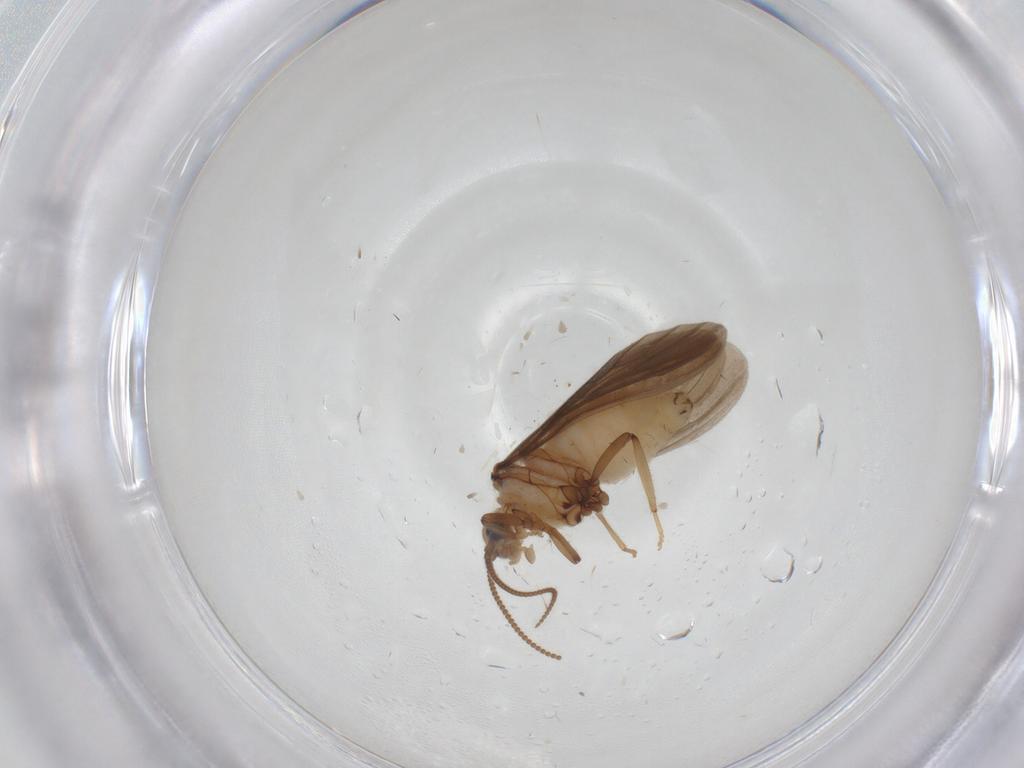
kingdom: Animalia
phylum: Arthropoda
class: Insecta
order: Neuroptera
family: Coniopterygidae
